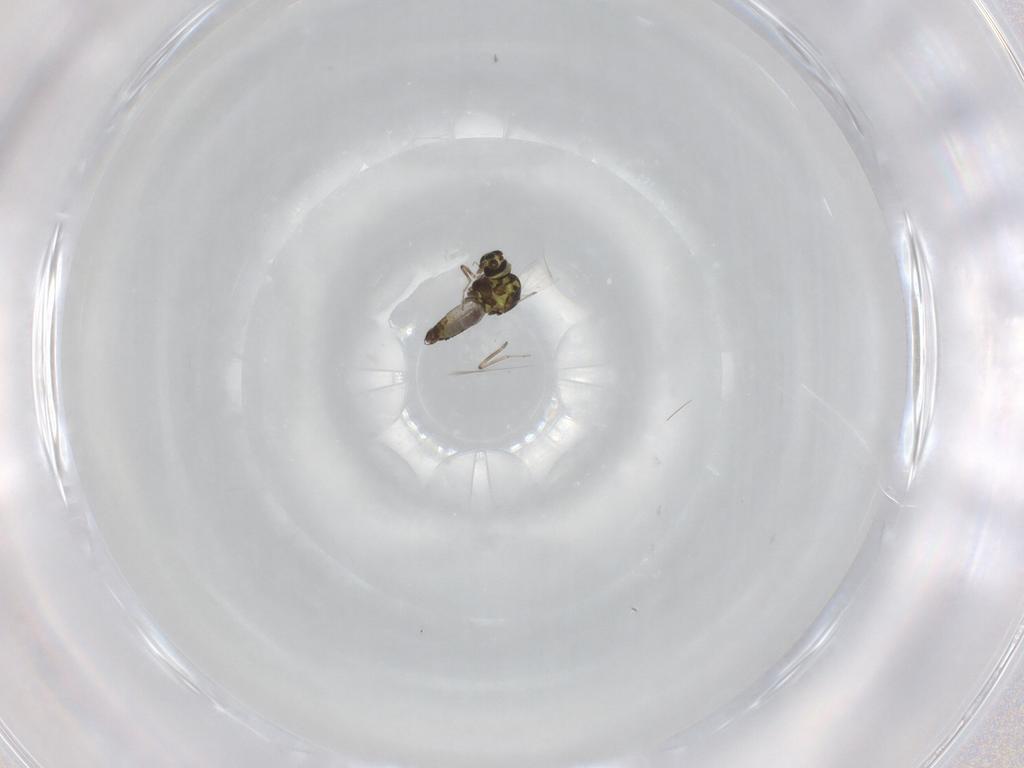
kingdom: Animalia
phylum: Arthropoda
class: Insecta
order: Diptera
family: Ceratopogonidae
